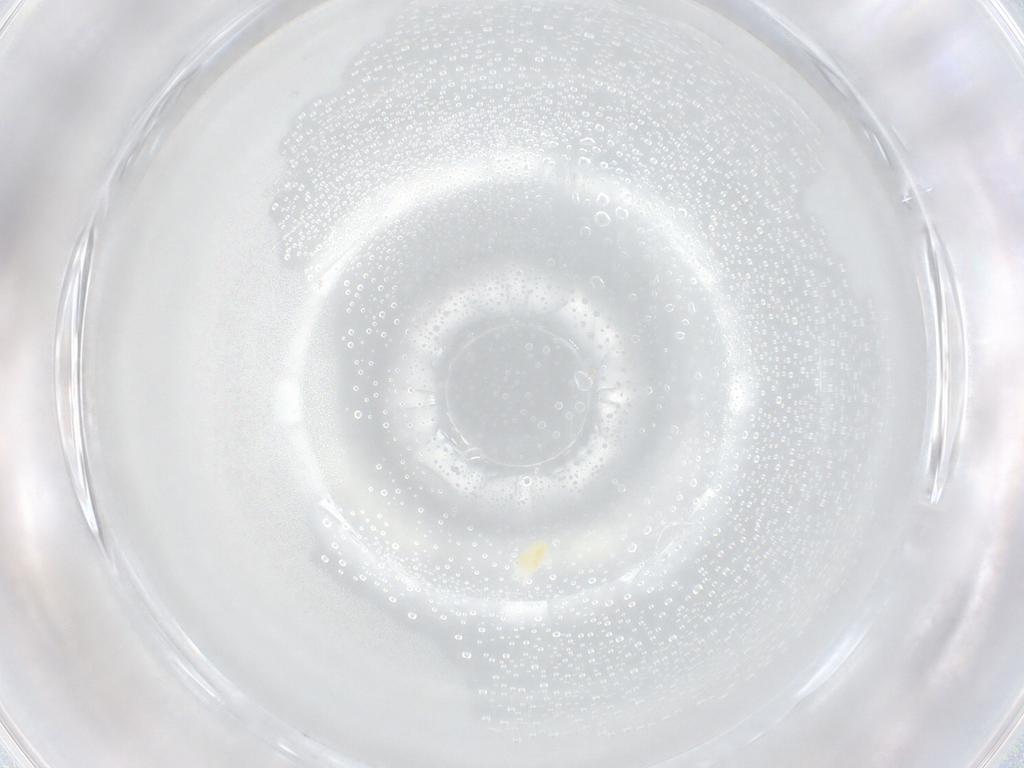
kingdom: Animalia
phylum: Arthropoda
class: Arachnida
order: Trombidiformes
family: Eupodidae
